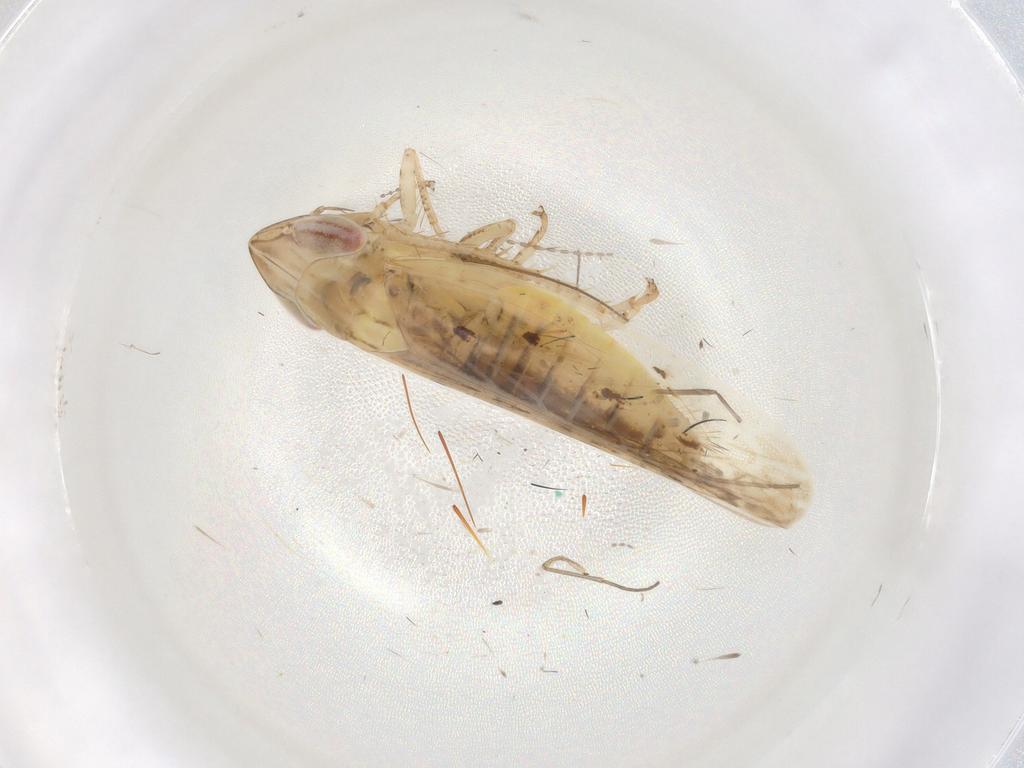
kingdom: Animalia
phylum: Arthropoda
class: Insecta
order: Hemiptera
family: Cicadellidae
